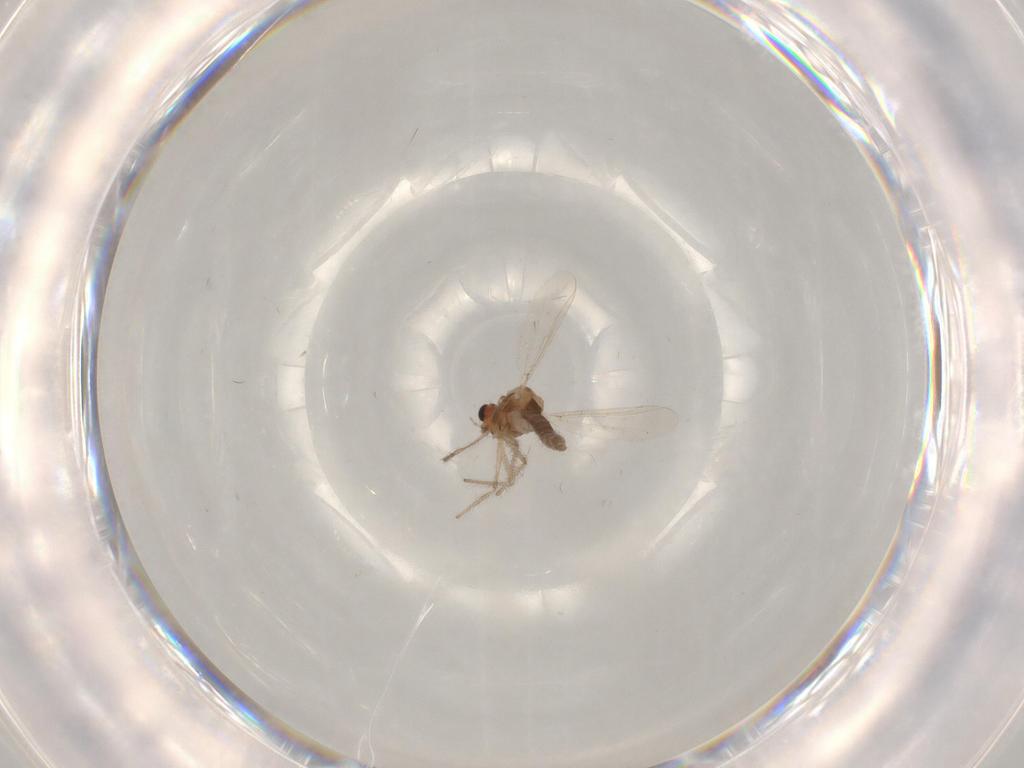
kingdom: Animalia
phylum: Arthropoda
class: Insecta
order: Diptera
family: Chironomidae
